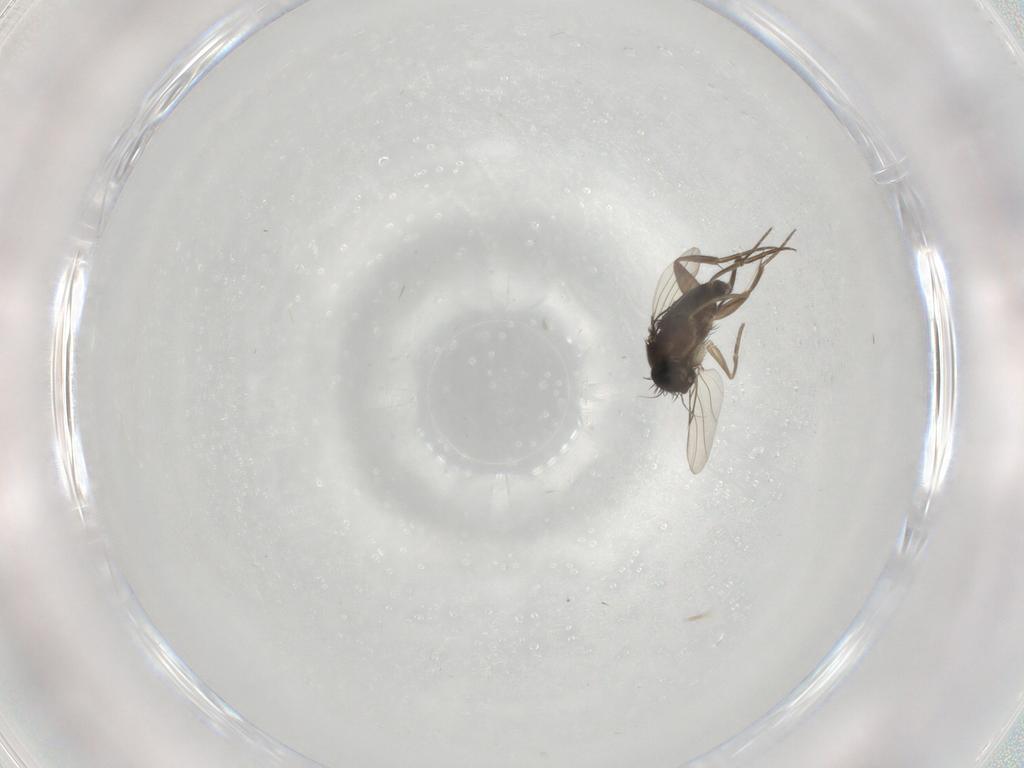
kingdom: Animalia
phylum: Arthropoda
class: Insecta
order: Diptera
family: Phoridae
